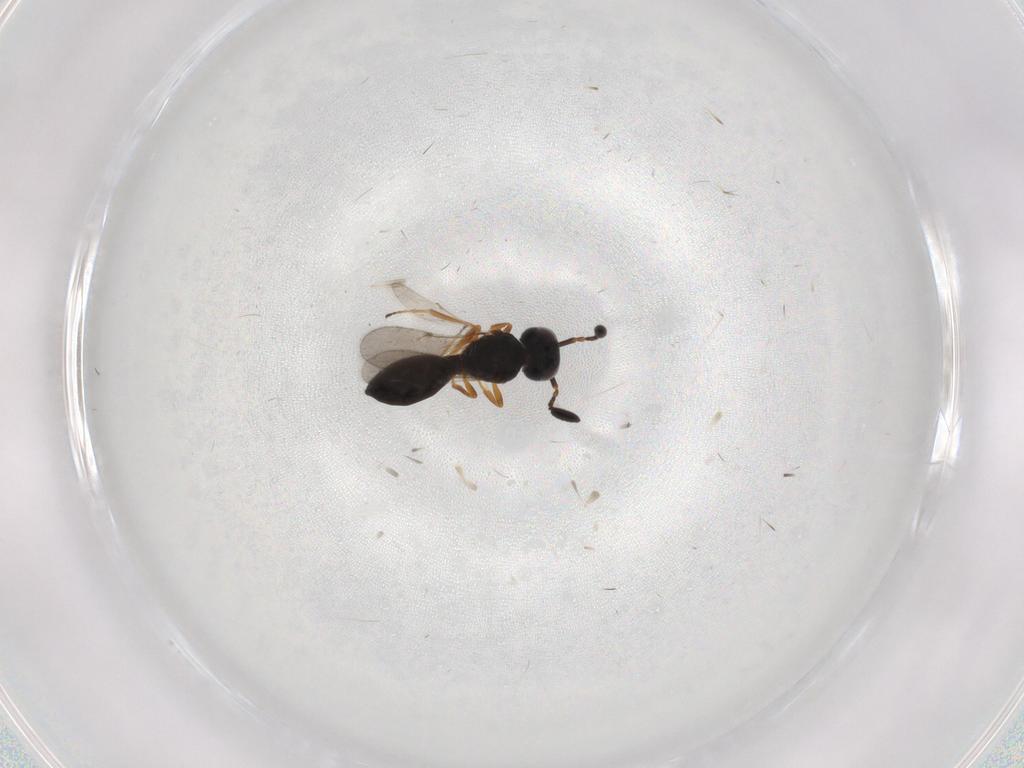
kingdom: Animalia
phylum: Arthropoda
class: Insecta
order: Hymenoptera
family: Scelionidae
